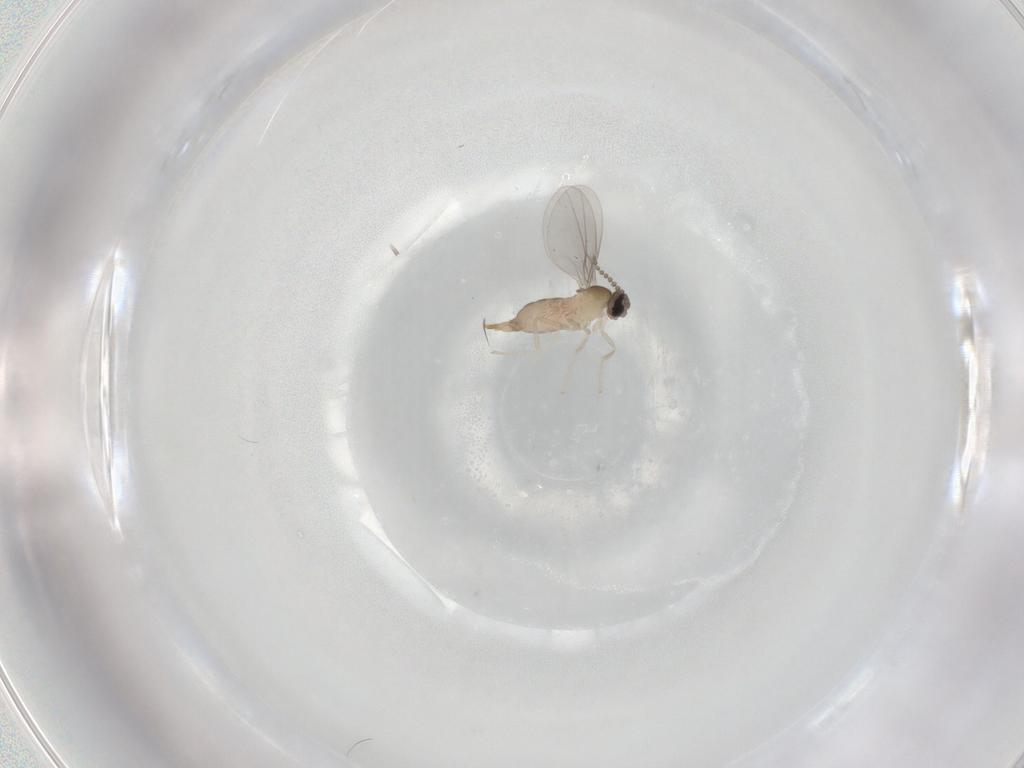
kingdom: Animalia
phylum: Arthropoda
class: Insecta
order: Diptera
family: Cecidomyiidae
